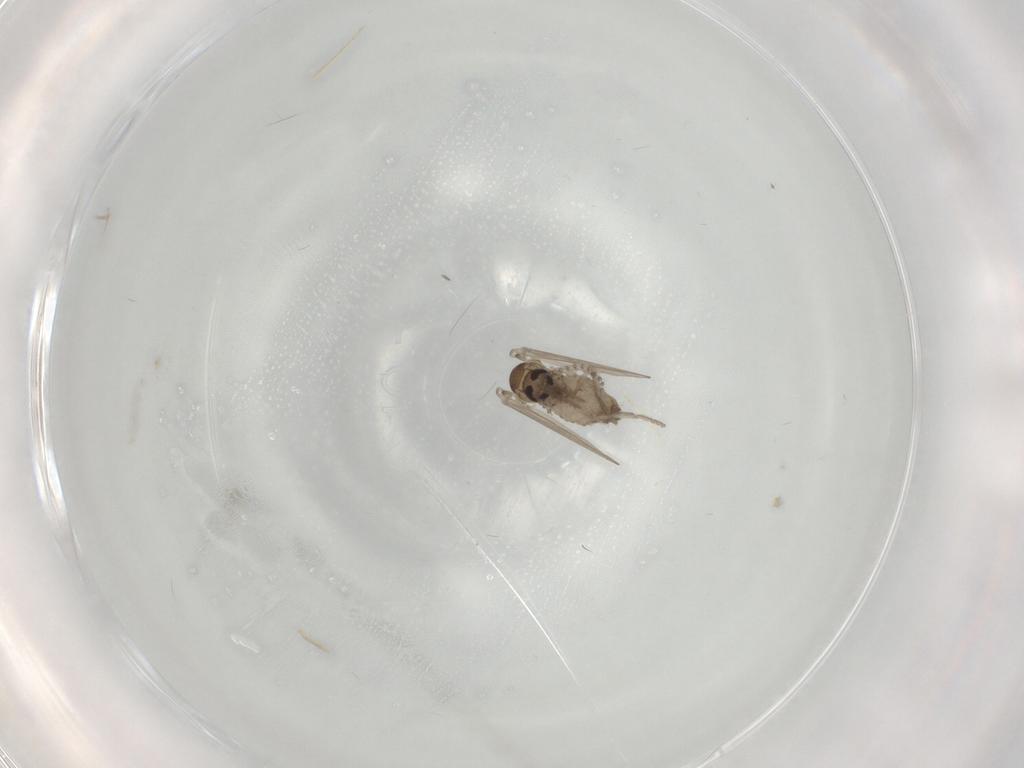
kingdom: Animalia
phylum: Arthropoda
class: Insecta
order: Diptera
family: Psychodidae
